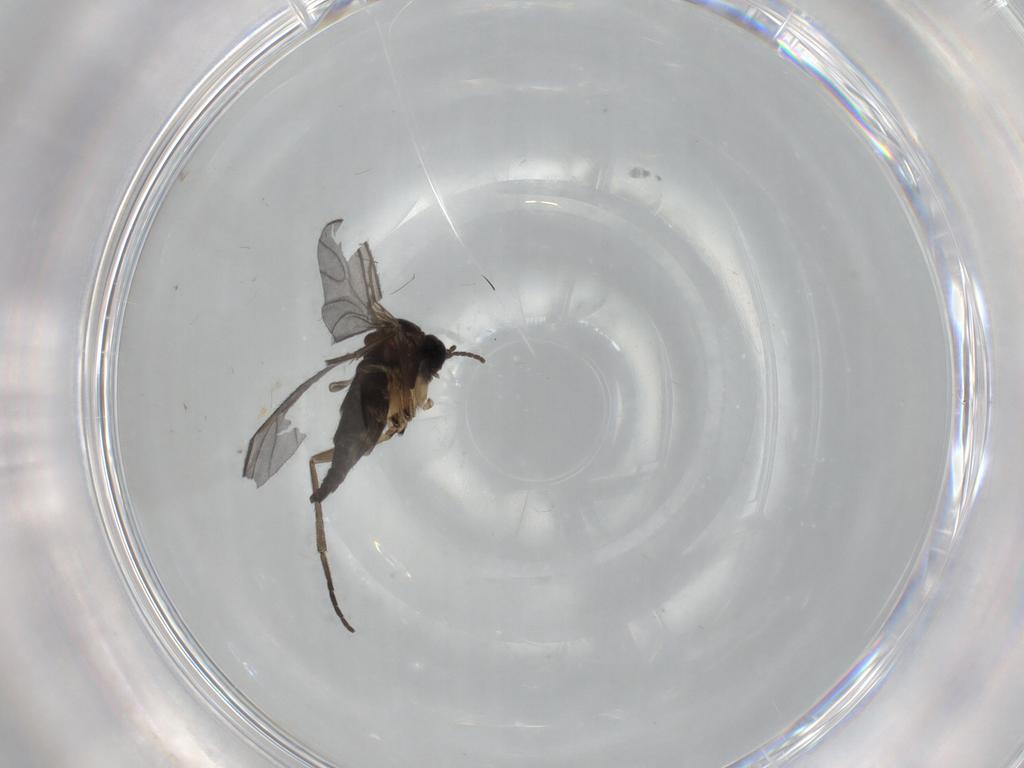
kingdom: Animalia
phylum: Arthropoda
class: Insecta
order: Diptera
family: Sciaridae
